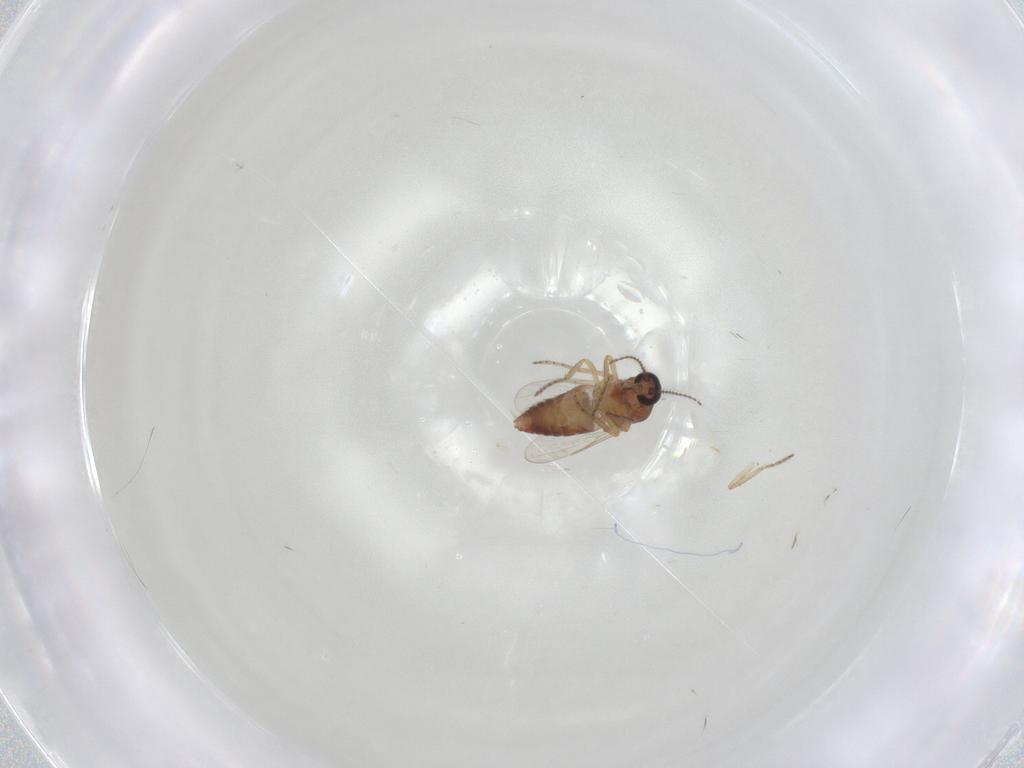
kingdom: Animalia
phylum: Arthropoda
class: Insecta
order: Diptera
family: Ceratopogonidae
